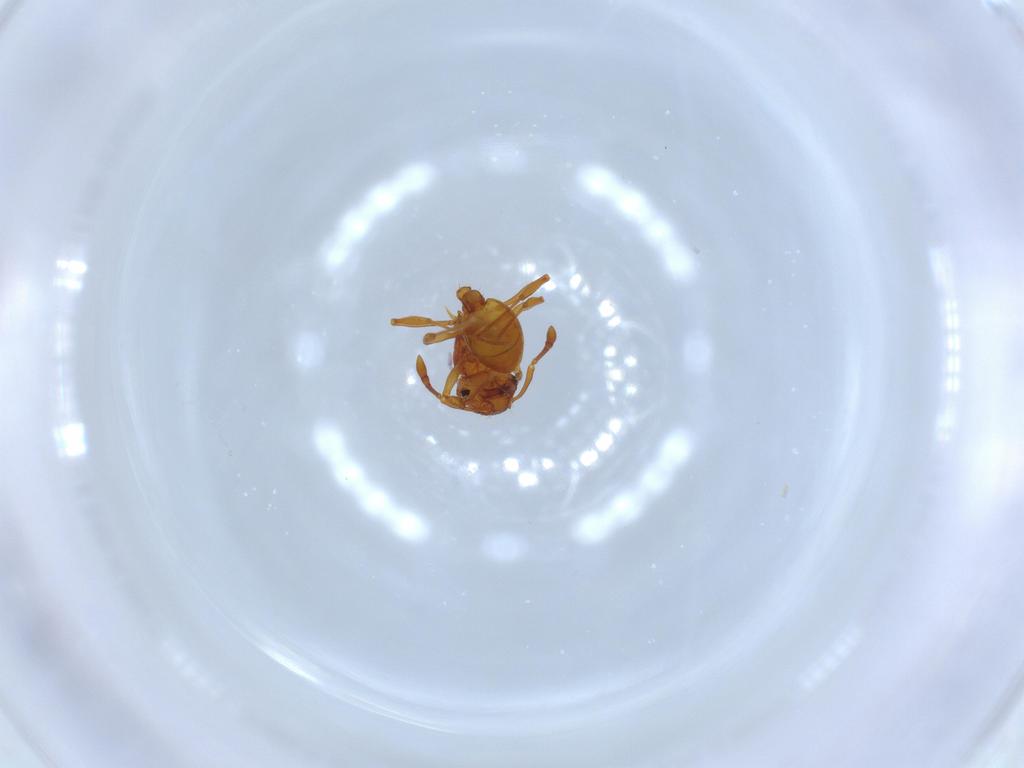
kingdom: Animalia
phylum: Arthropoda
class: Insecta
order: Hymenoptera
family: Formicidae
